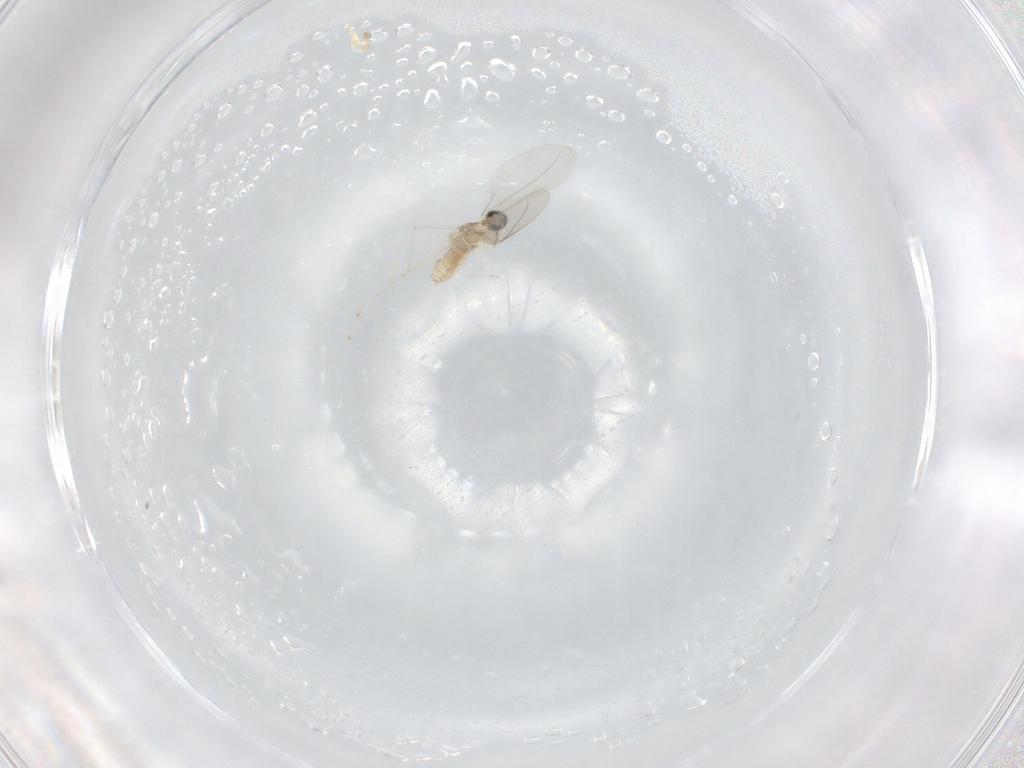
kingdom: Animalia
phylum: Arthropoda
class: Insecta
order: Diptera
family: Cecidomyiidae
